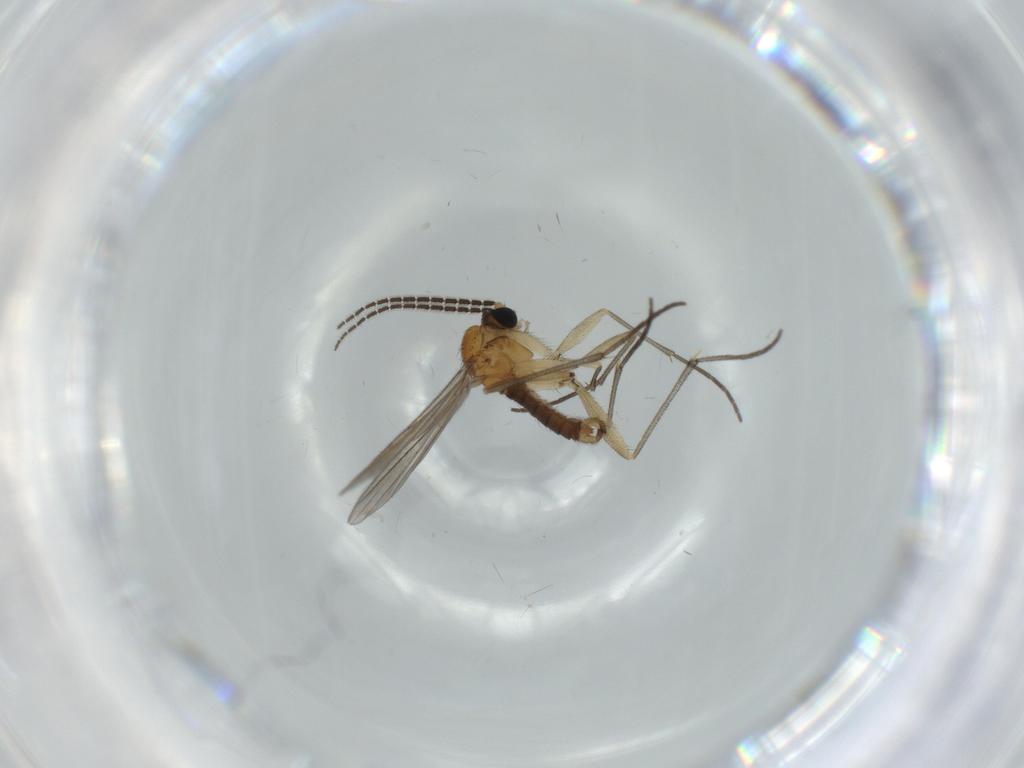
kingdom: Animalia
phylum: Arthropoda
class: Insecta
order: Diptera
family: Sciaridae
